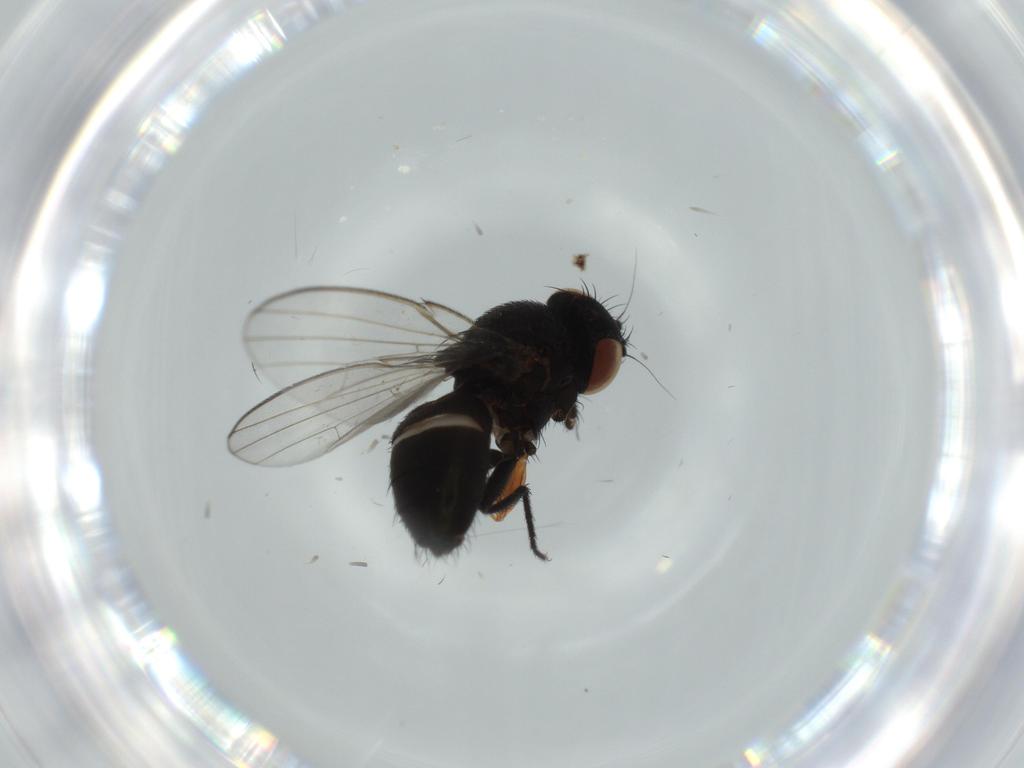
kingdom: Animalia
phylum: Arthropoda
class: Insecta
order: Diptera
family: Milichiidae
